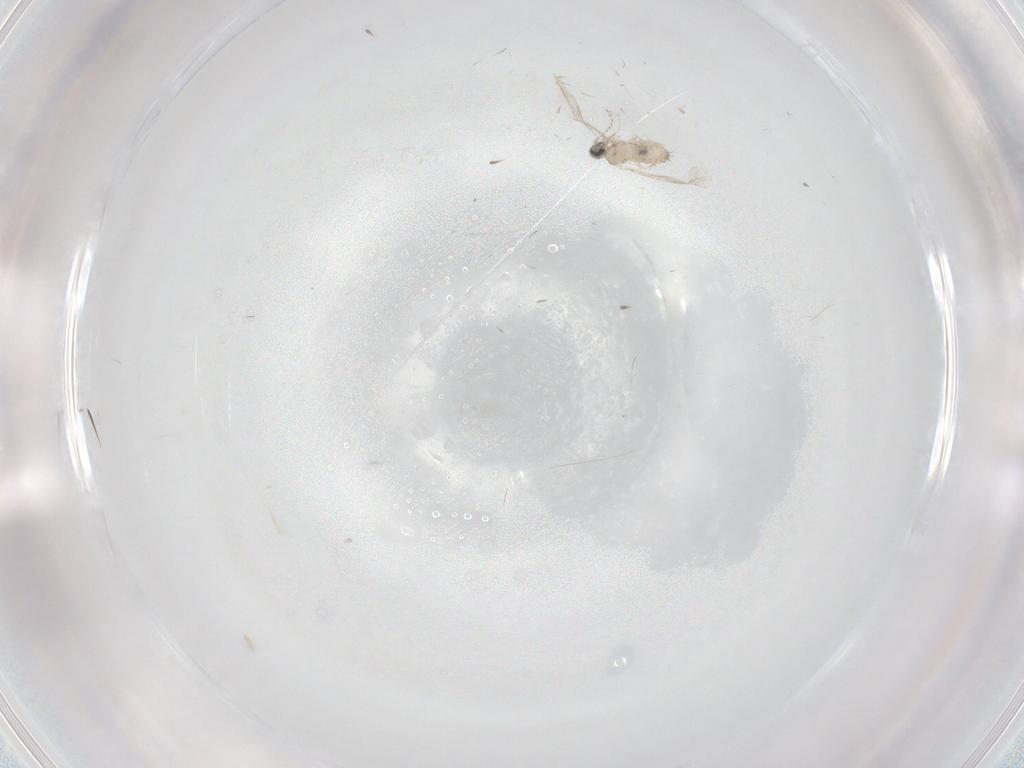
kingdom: Animalia
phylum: Arthropoda
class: Insecta
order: Diptera
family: Cecidomyiidae
